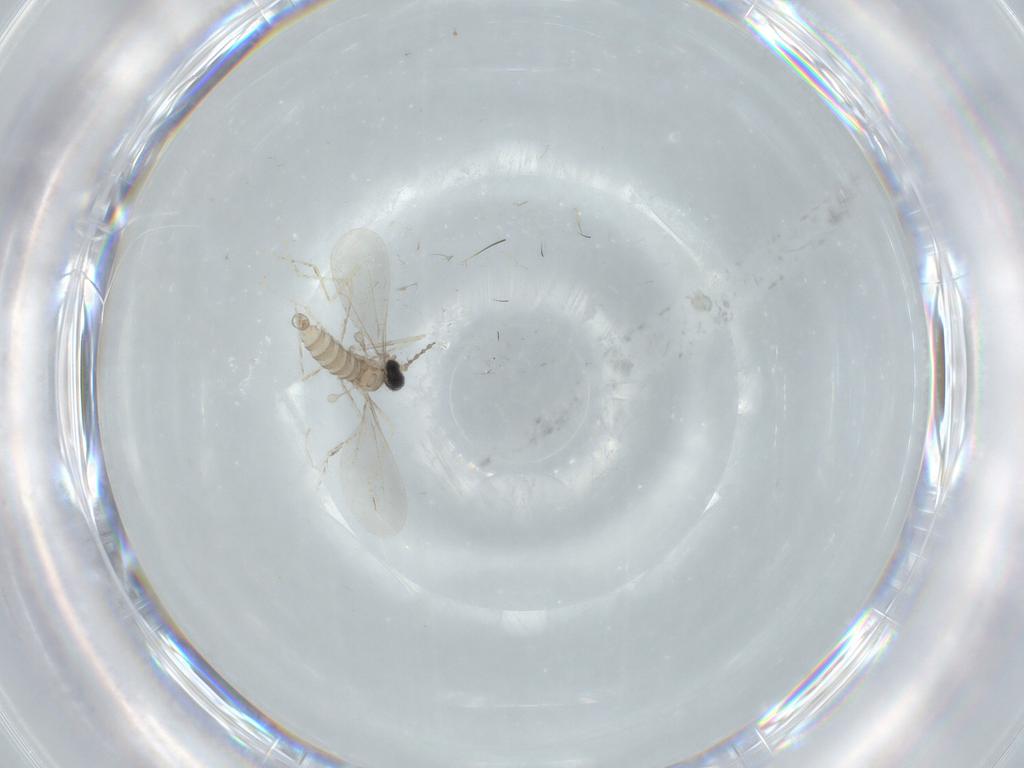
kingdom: Animalia
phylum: Arthropoda
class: Insecta
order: Diptera
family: Cecidomyiidae
